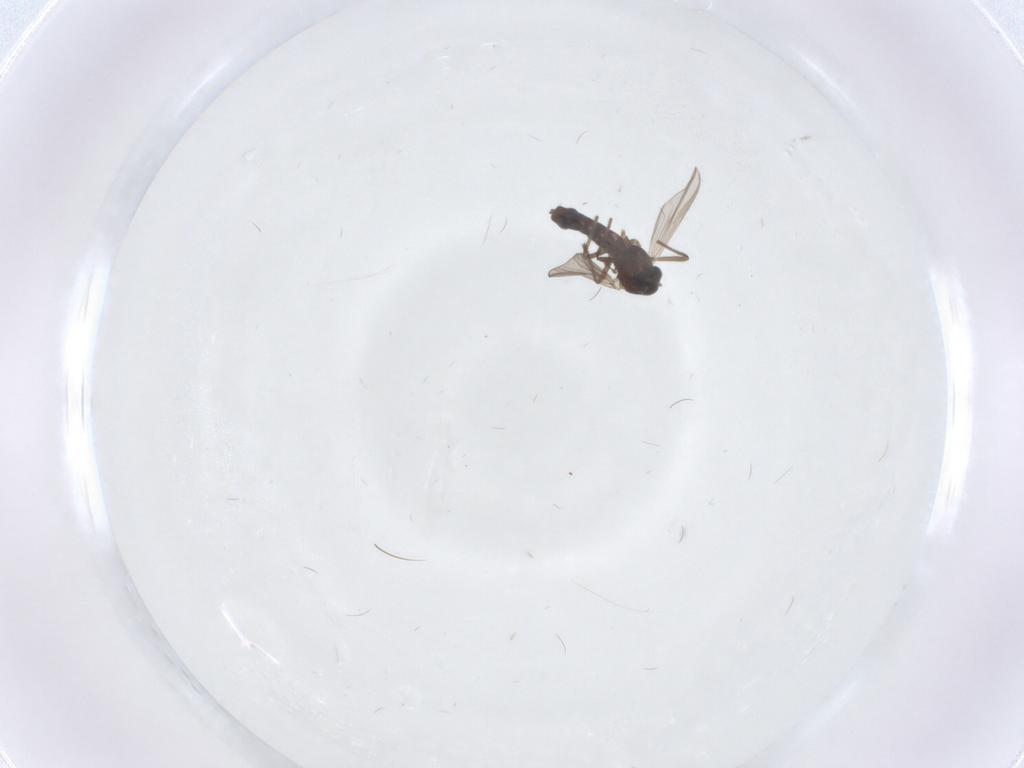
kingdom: Animalia
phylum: Arthropoda
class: Insecta
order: Diptera
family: Chironomidae
